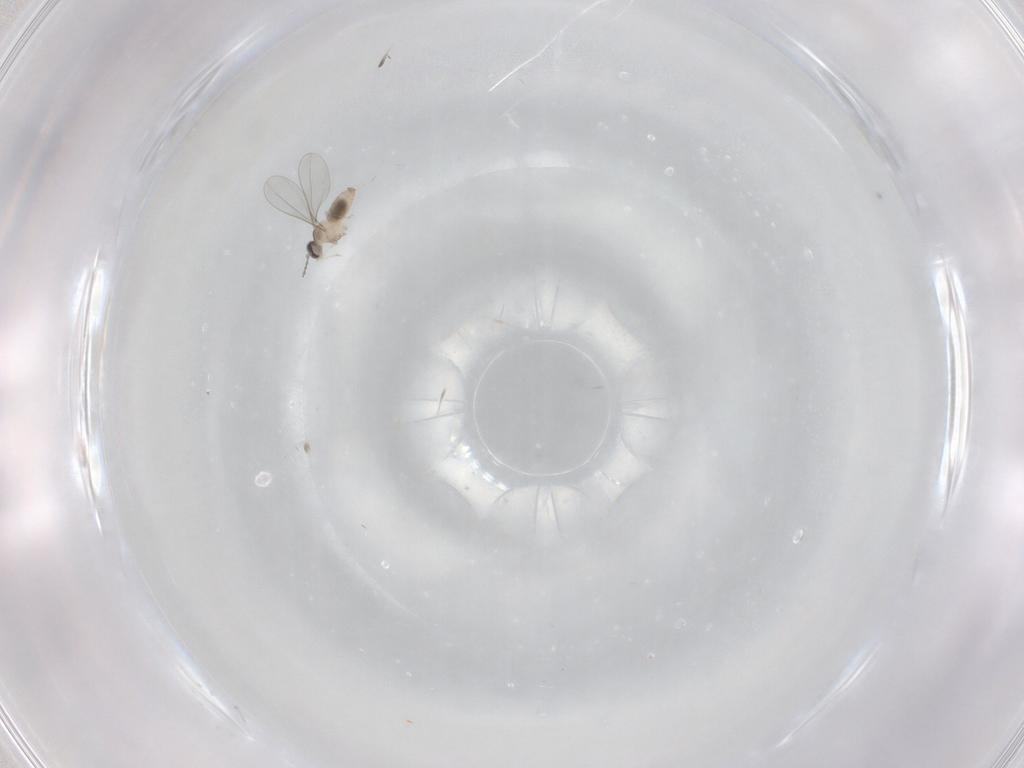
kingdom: Animalia
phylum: Arthropoda
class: Insecta
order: Diptera
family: Cecidomyiidae
